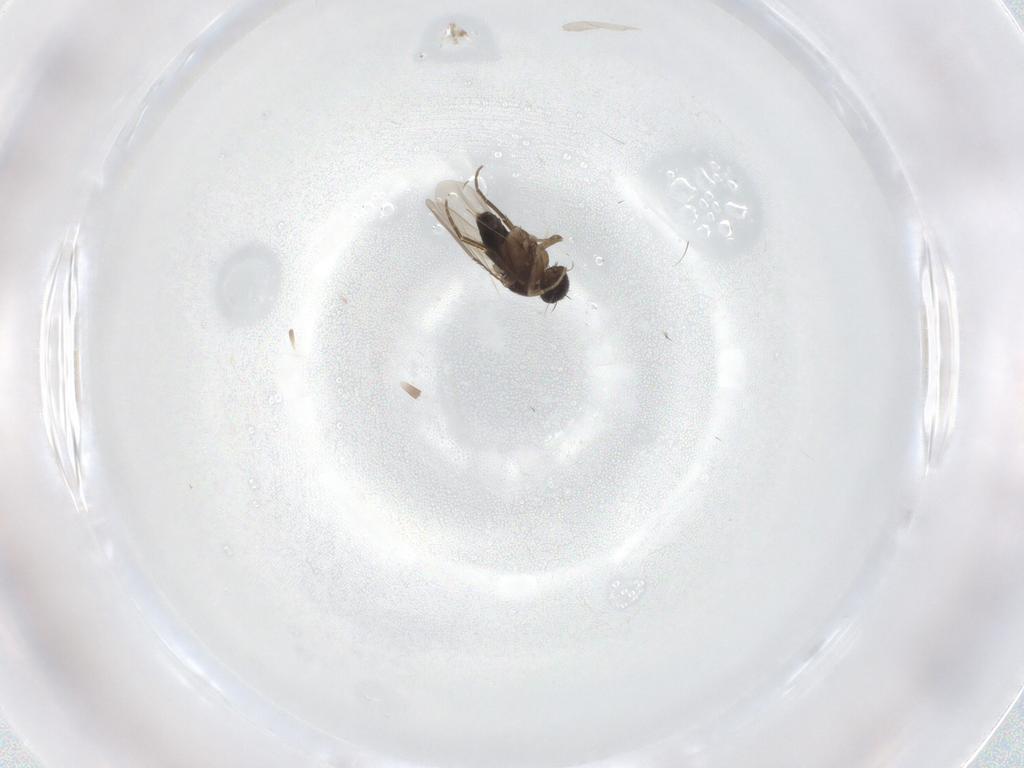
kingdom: Animalia
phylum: Arthropoda
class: Insecta
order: Diptera
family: Phoridae
